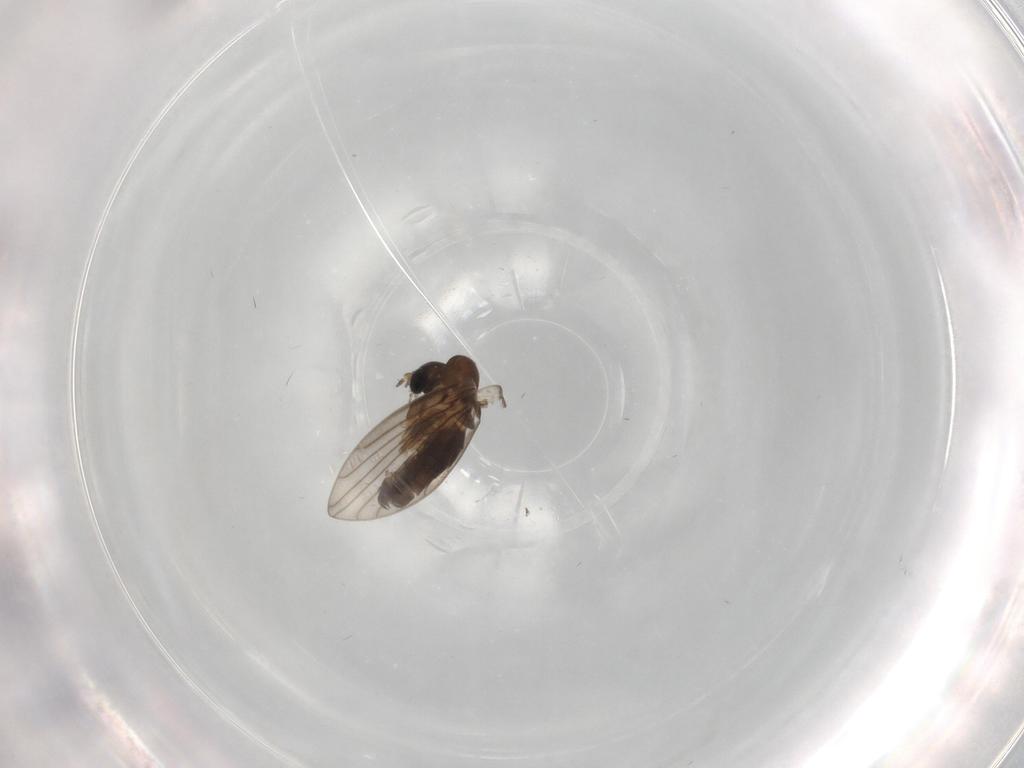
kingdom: Animalia
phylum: Arthropoda
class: Insecta
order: Diptera
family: Psychodidae
